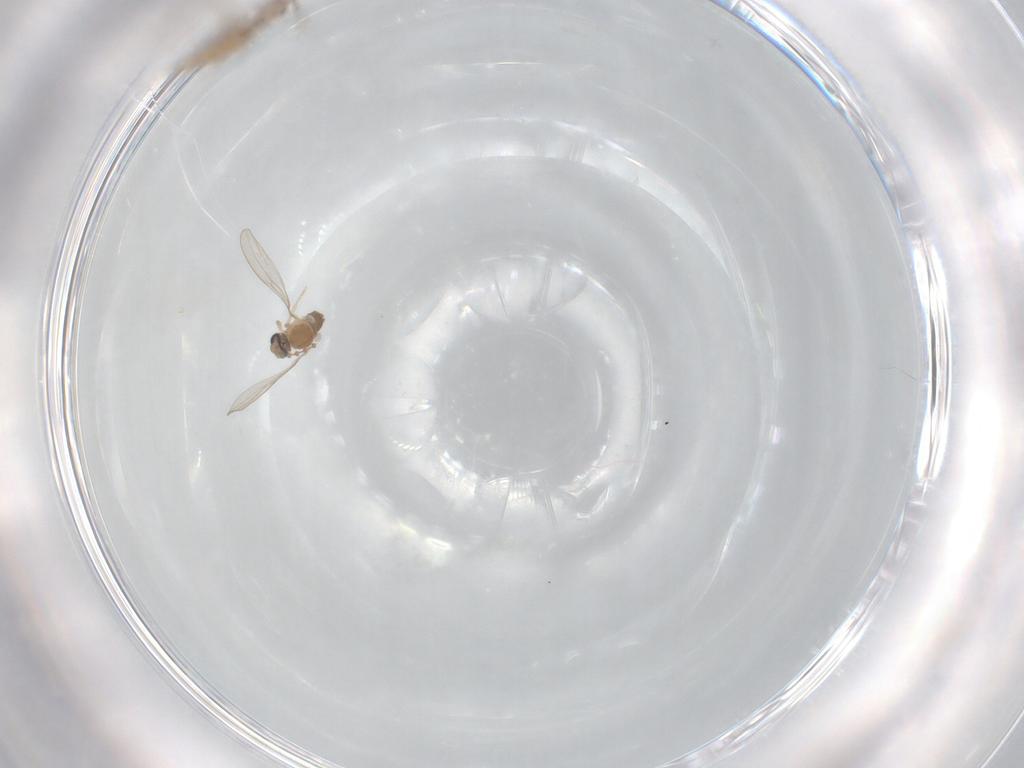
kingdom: Animalia
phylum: Arthropoda
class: Insecta
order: Diptera
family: Chironomidae
